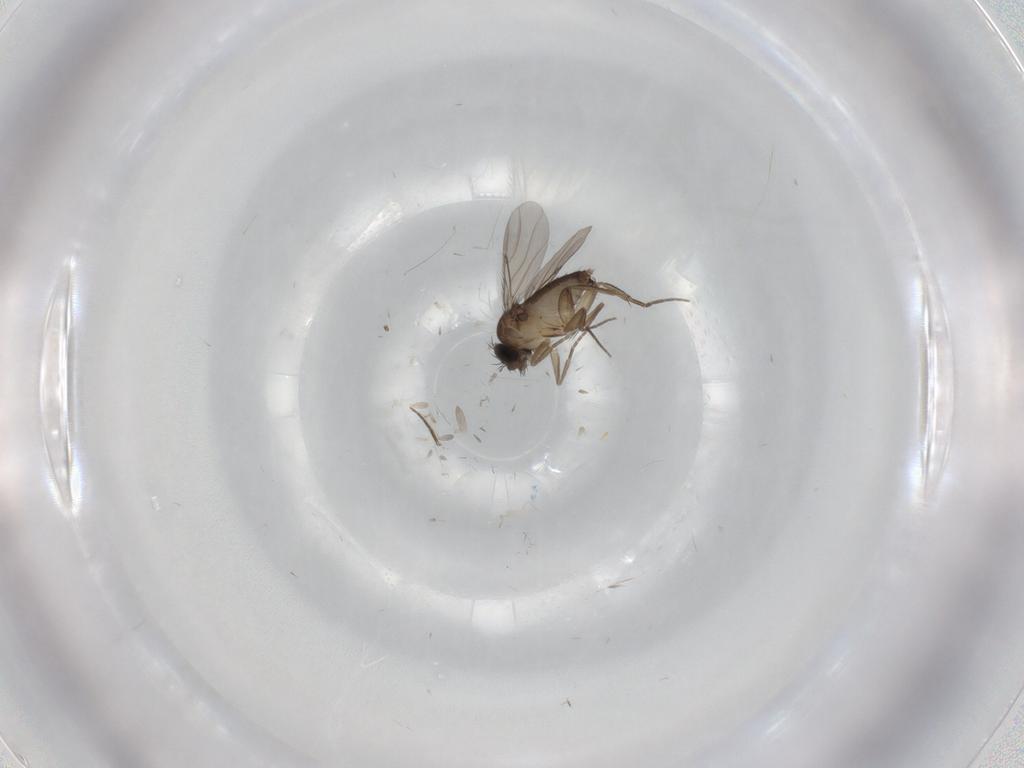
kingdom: Animalia
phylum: Arthropoda
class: Insecta
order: Diptera
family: Phoridae
